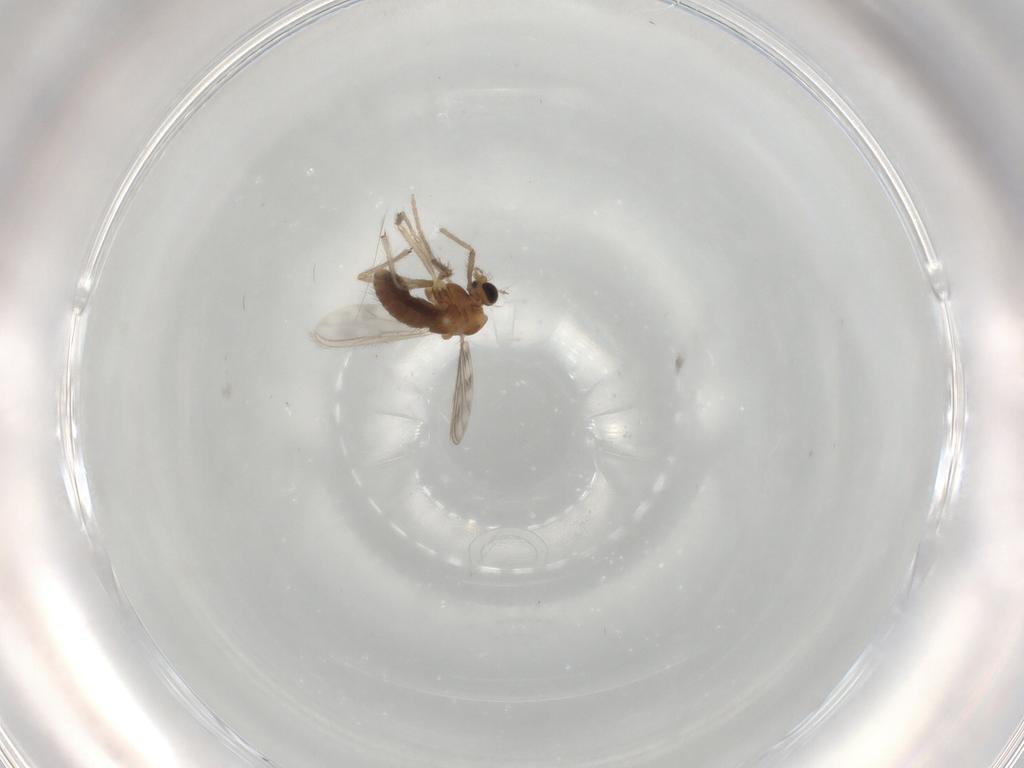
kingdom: Animalia
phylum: Arthropoda
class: Insecta
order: Diptera
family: Chironomidae
